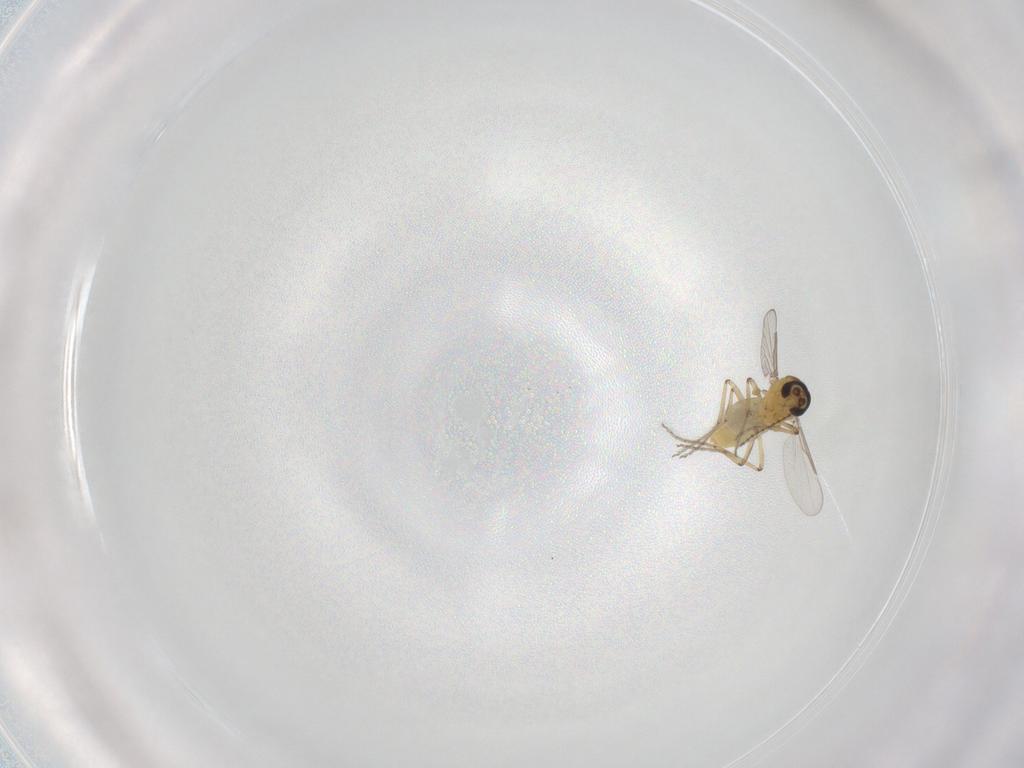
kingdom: Animalia
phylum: Arthropoda
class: Insecta
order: Diptera
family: Ceratopogonidae
